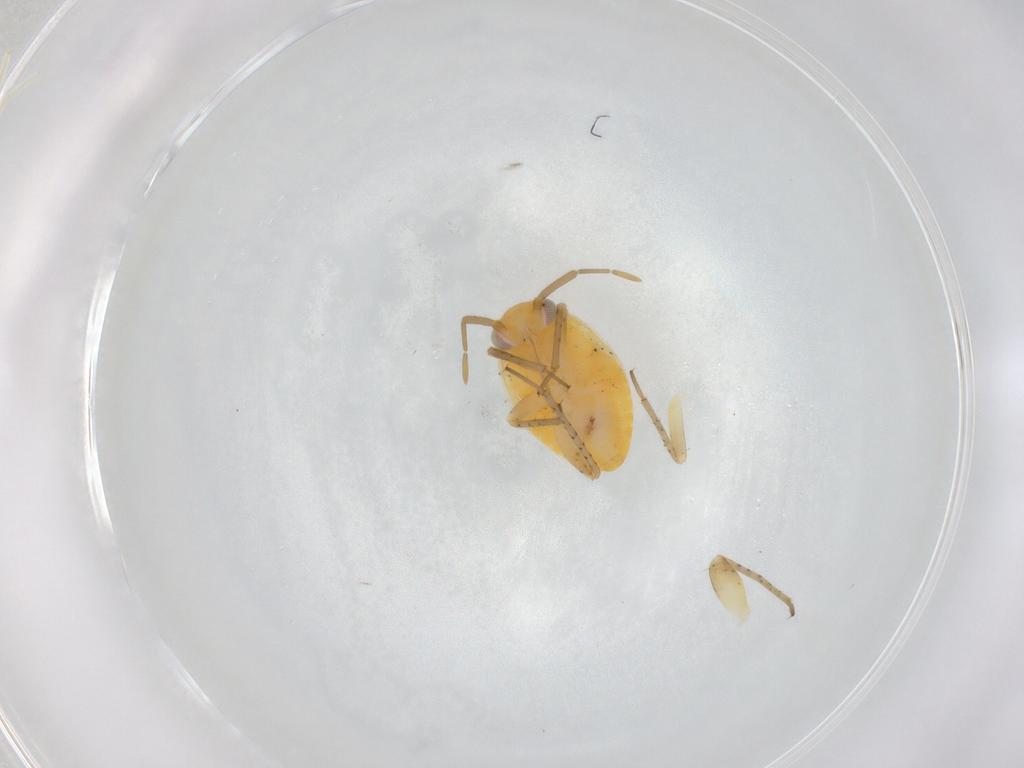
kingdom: Animalia
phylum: Arthropoda
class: Insecta
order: Hemiptera
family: Miridae
